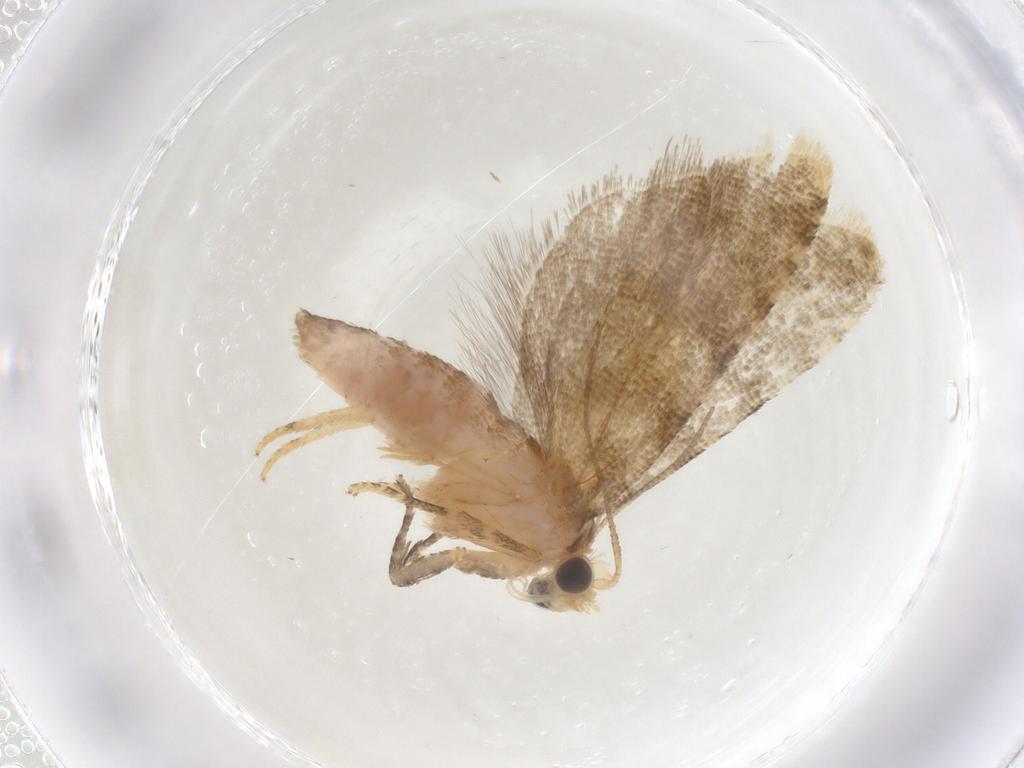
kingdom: Animalia
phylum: Arthropoda
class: Insecta
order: Lepidoptera
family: Tortricidae
